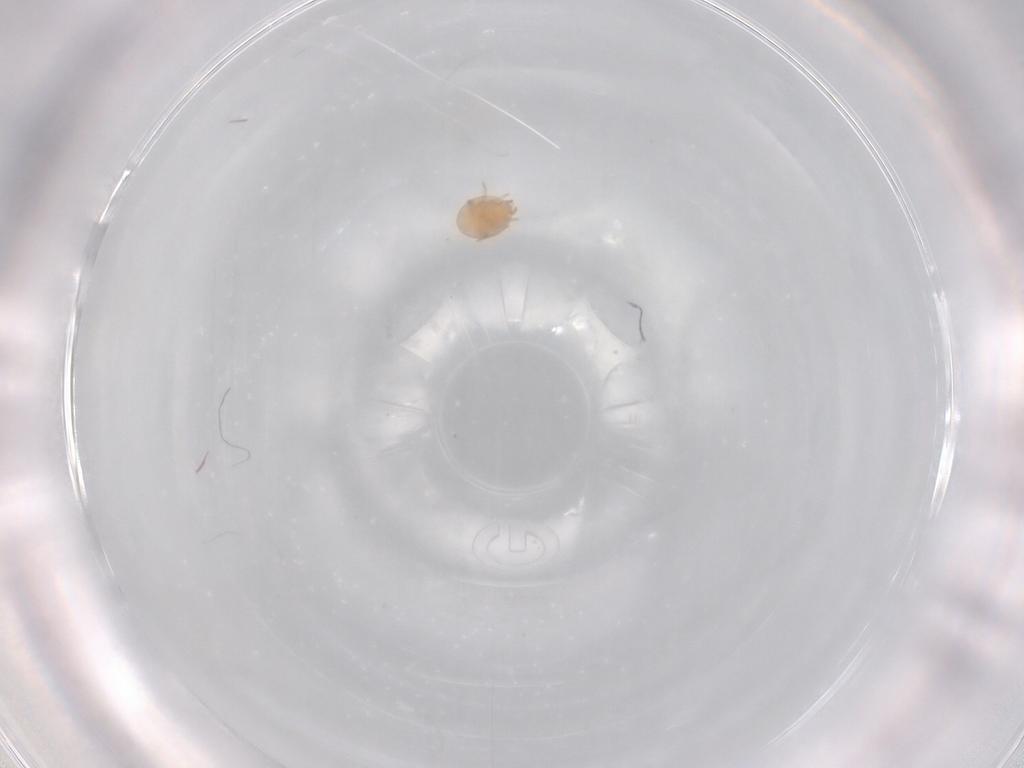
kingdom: Animalia
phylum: Arthropoda
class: Arachnida
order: Mesostigmata
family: Trematuridae
